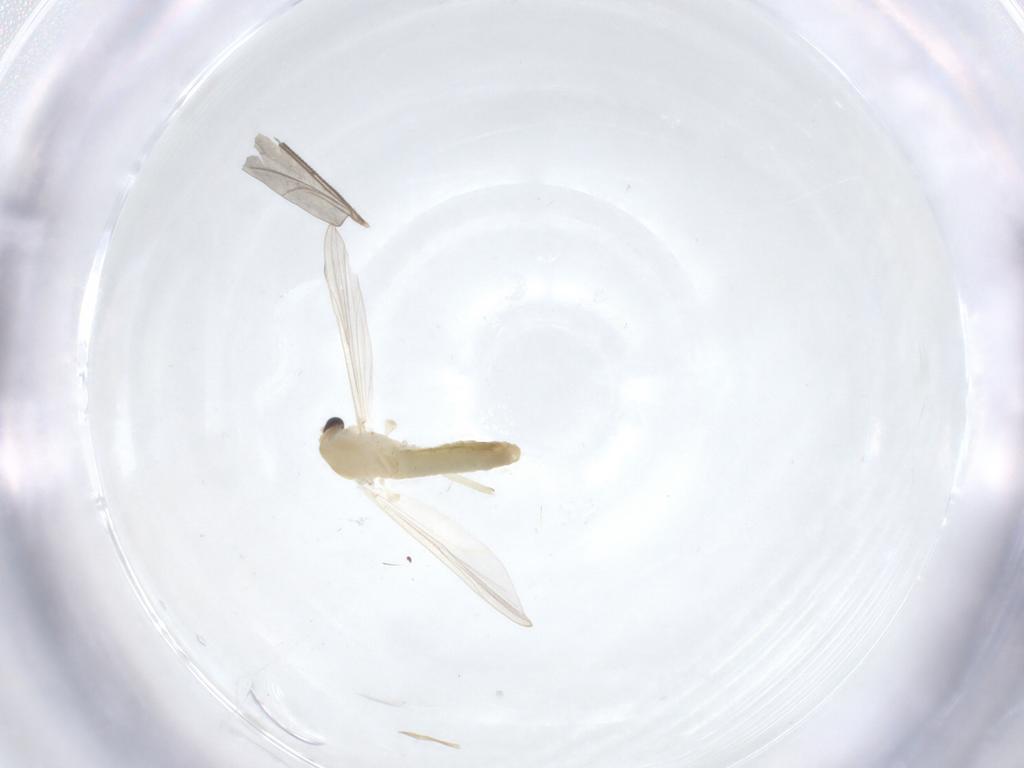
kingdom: Animalia
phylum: Arthropoda
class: Insecta
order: Diptera
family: Chironomidae
